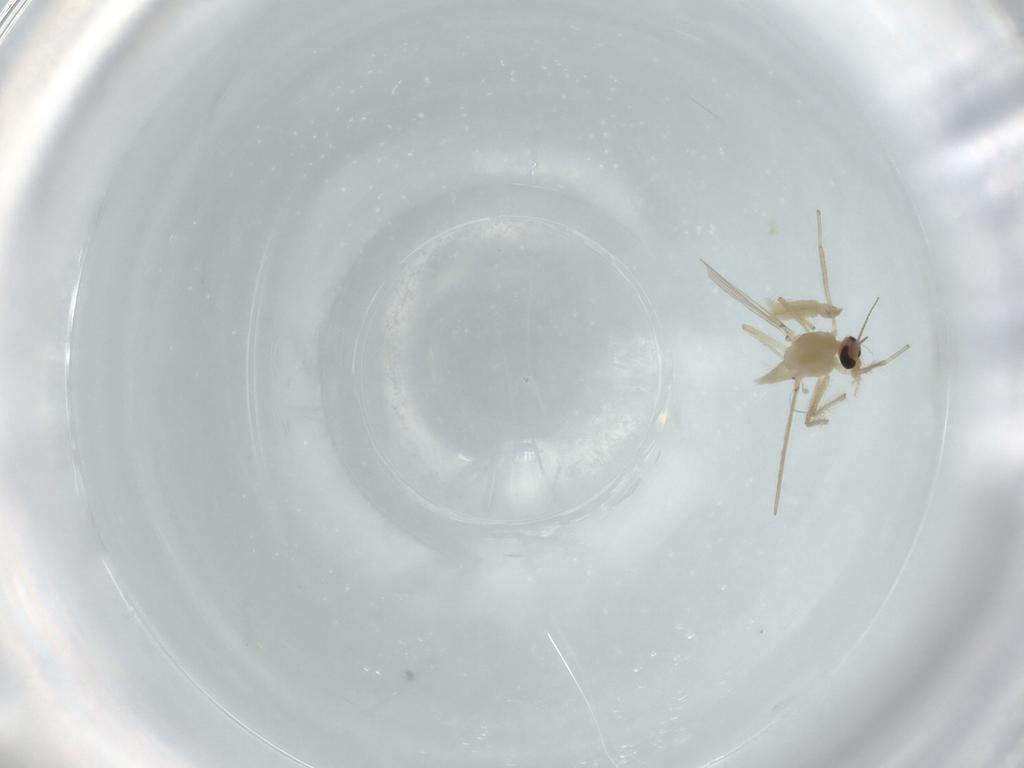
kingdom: Animalia
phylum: Arthropoda
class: Insecta
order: Diptera
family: Chironomidae
